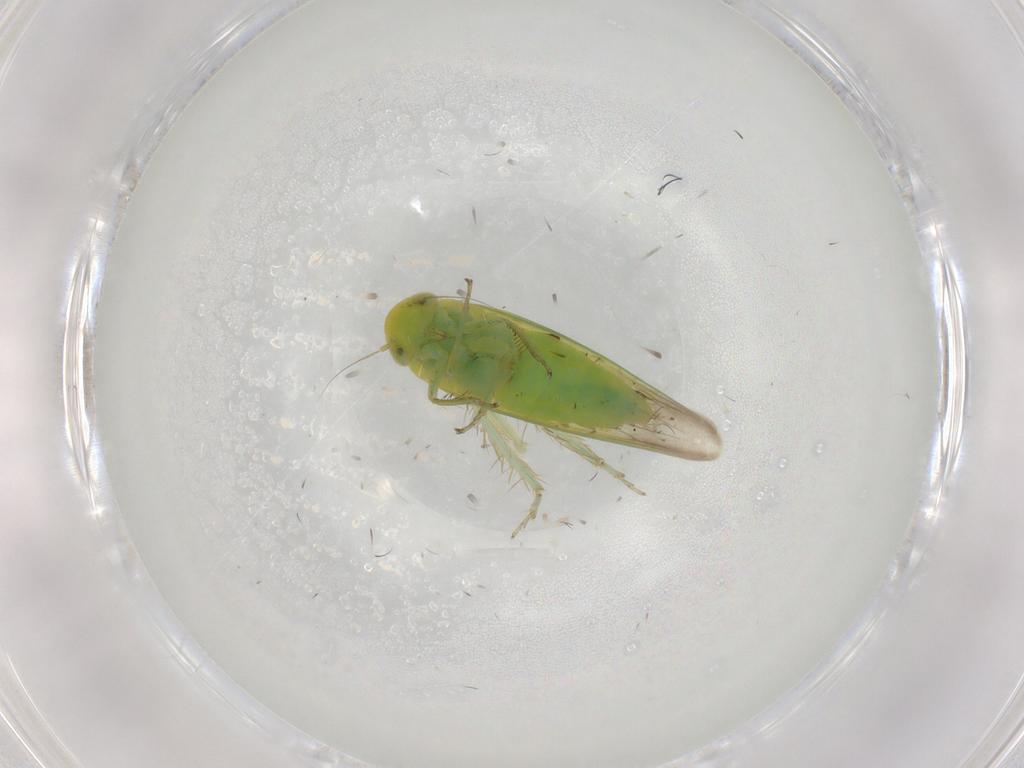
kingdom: Animalia
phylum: Arthropoda
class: Insecta
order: Hemiptera
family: Cicadellidae
